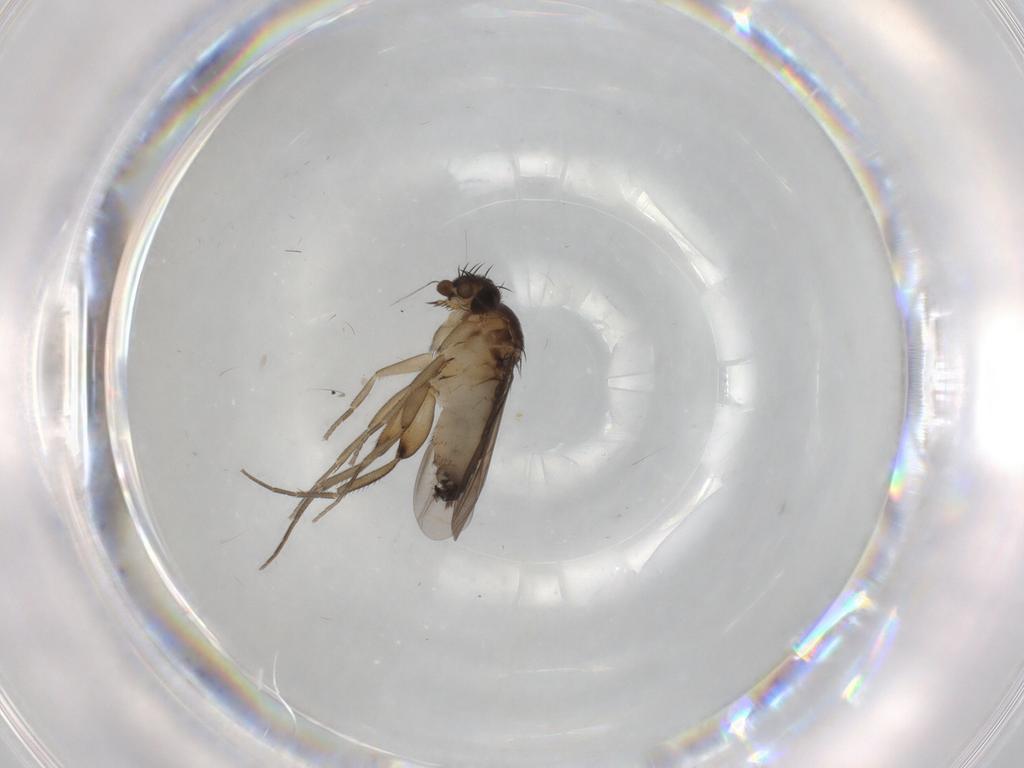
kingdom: Animalia
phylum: Arthropoda
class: Insecta
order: Diptera
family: Phoridae
